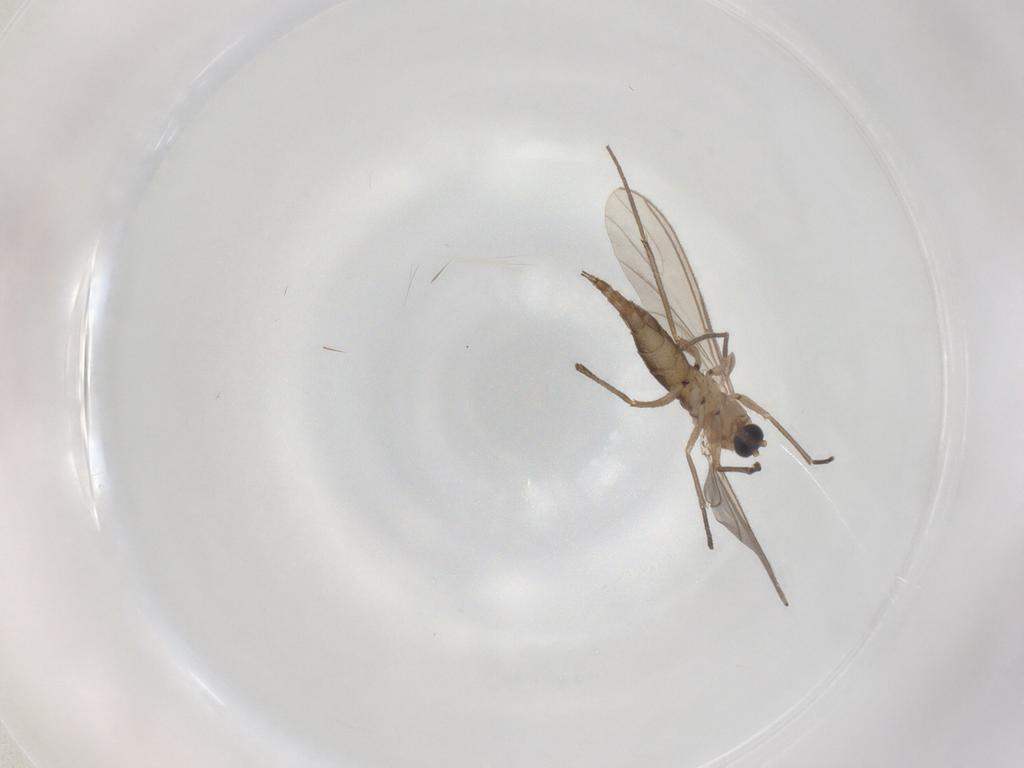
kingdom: Animalia
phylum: Arthropoda
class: Insecta
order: Diptera
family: Sciaridae
